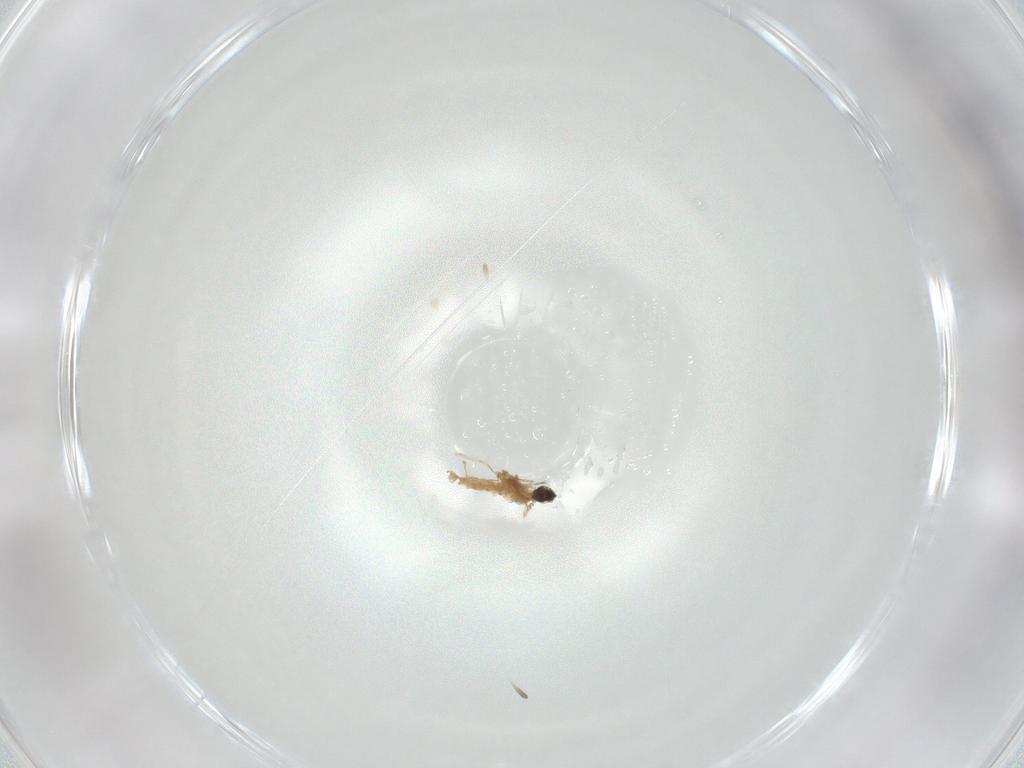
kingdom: Animalia
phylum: Arthropoda
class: Insecta
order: Diptera
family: Cecidomyiidae
